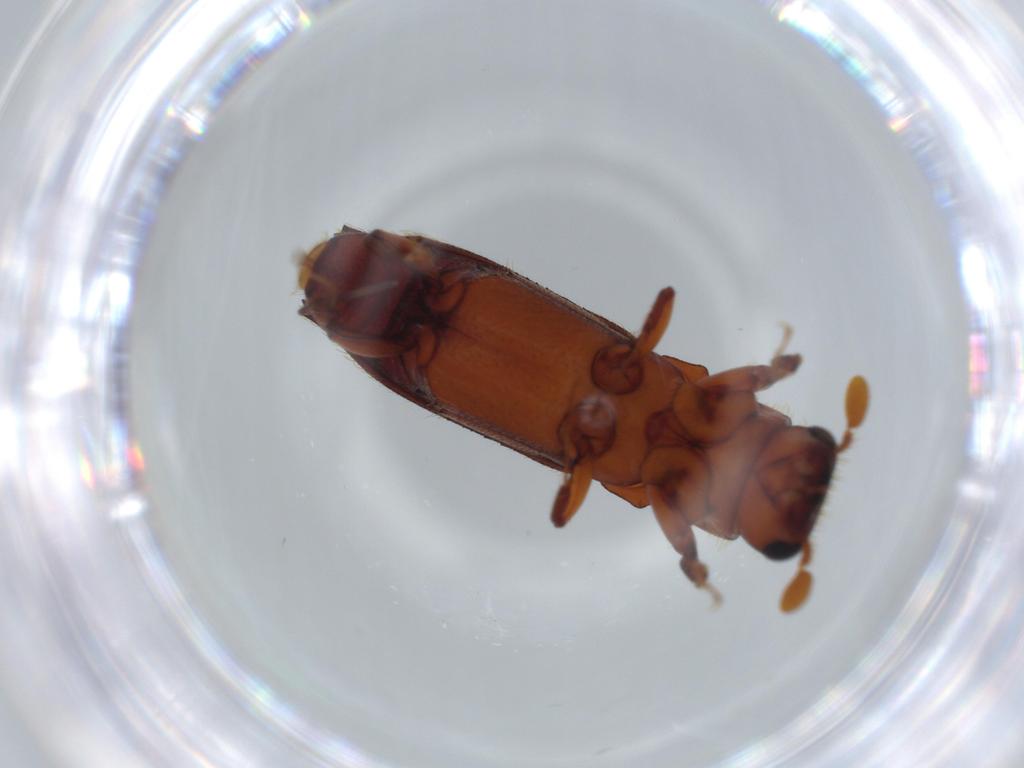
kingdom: Animalia
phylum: Arthropoda
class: Insecta
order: Coleoptera
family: Curculionidae
